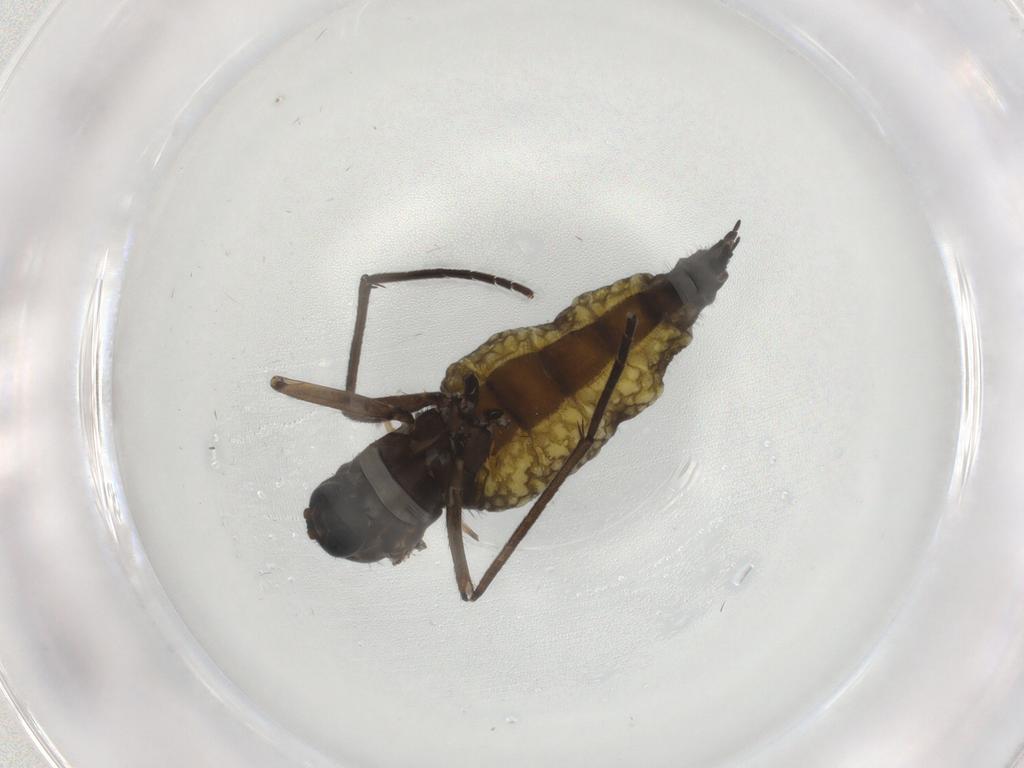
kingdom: Animalia
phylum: Arthropoda
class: Insecta
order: Diptera
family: Sciaridae
